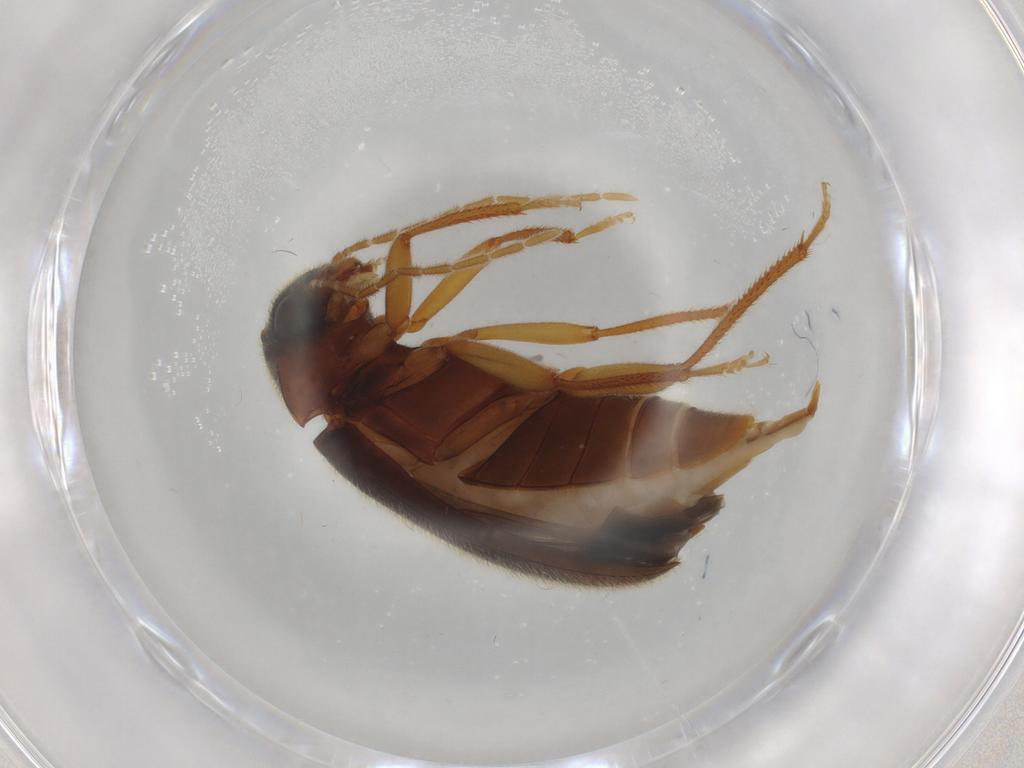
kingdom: Animalia
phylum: Arthropoda
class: Insecta
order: Coleoptera
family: Ptilodactylidae
